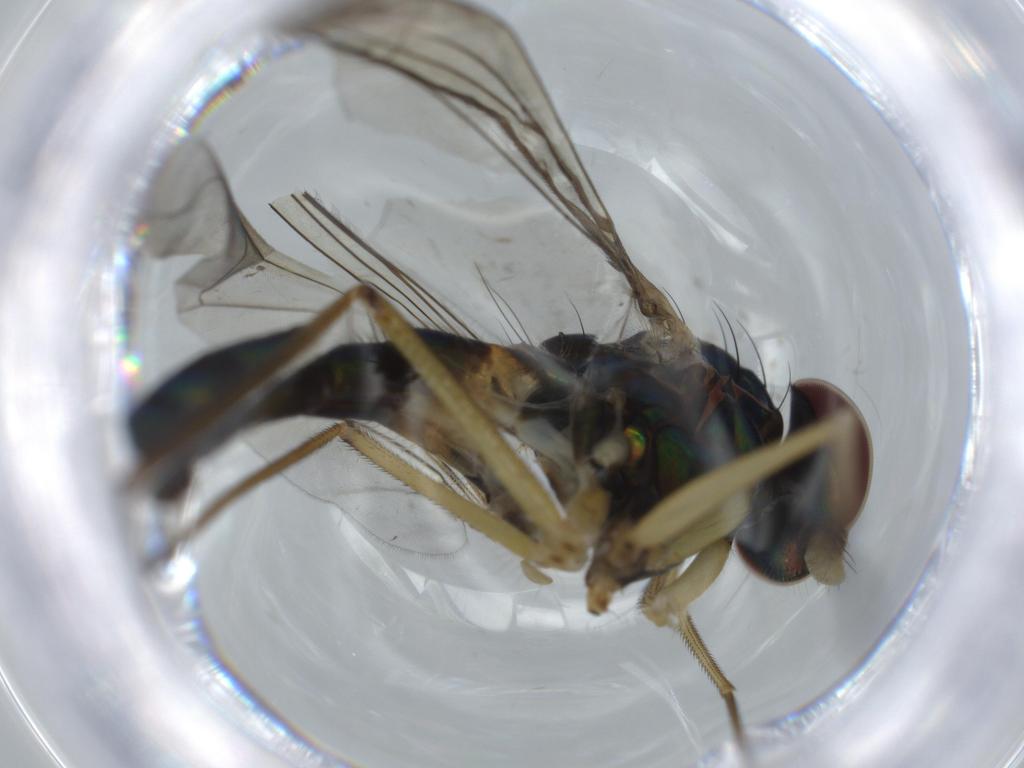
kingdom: Animalia
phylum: Arthropoda
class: Insecta
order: Diptera
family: Dolichopodidae
